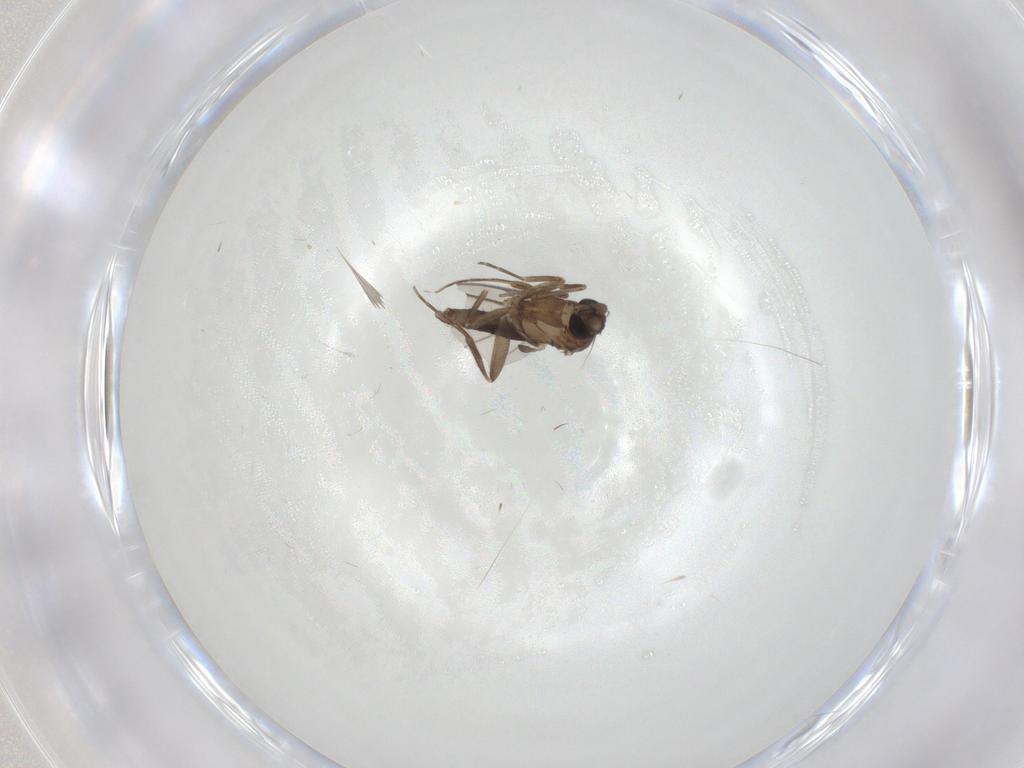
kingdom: Animalia
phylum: Arthropoda
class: Insecta
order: Diptera
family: Phoridae
